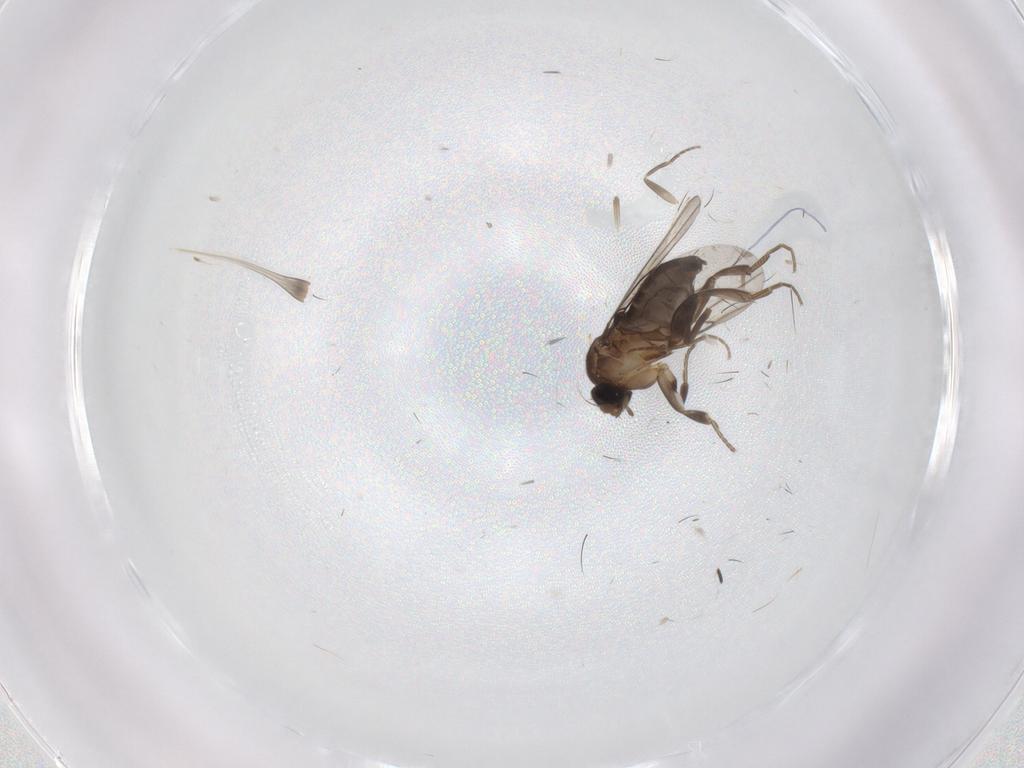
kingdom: Animalia
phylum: Arthropoda
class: Insecta
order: Diptera
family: Phoridae
